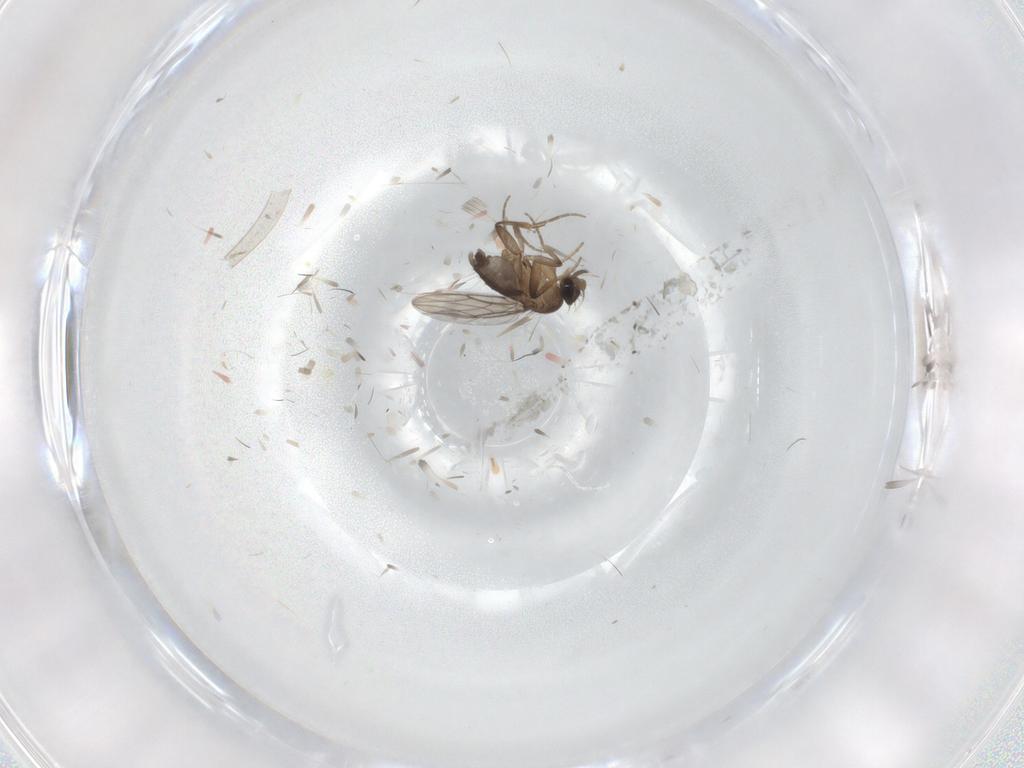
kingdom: Animalia
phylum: Arthropoda
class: Insecta
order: Diptera
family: Phoridae
